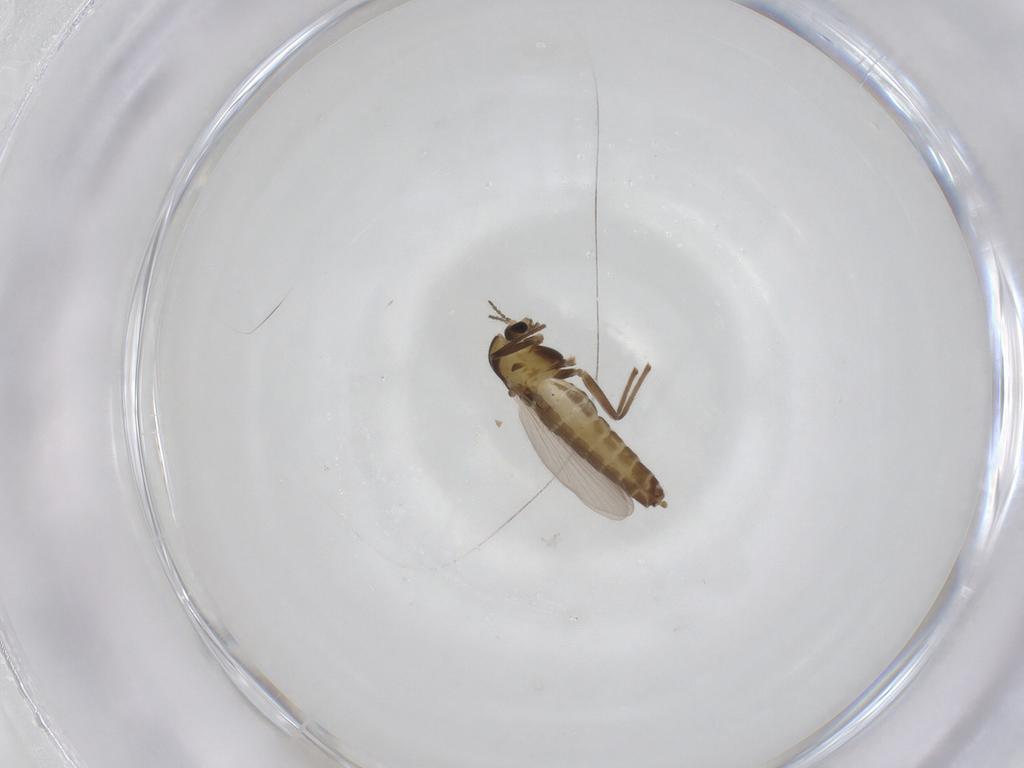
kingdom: Animalia
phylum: Arthropoda
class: Insecta
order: Diptera
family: Chironomidae
